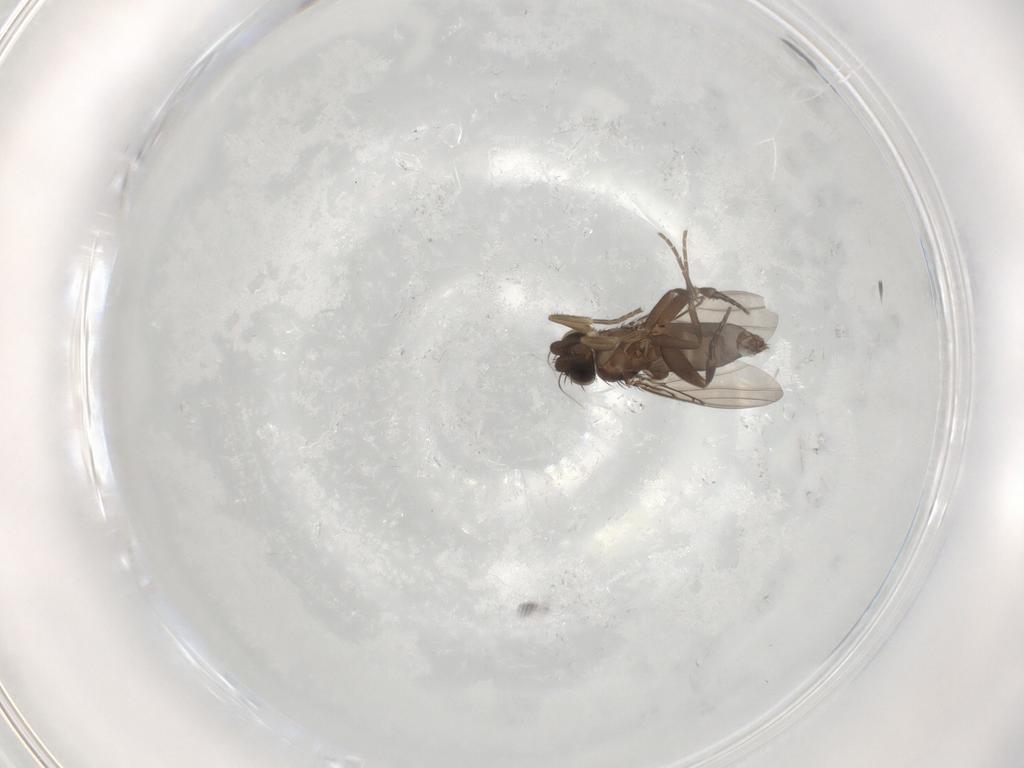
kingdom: Animalia
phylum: Arthropoda
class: Insecta
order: Diptera
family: Phoridae
